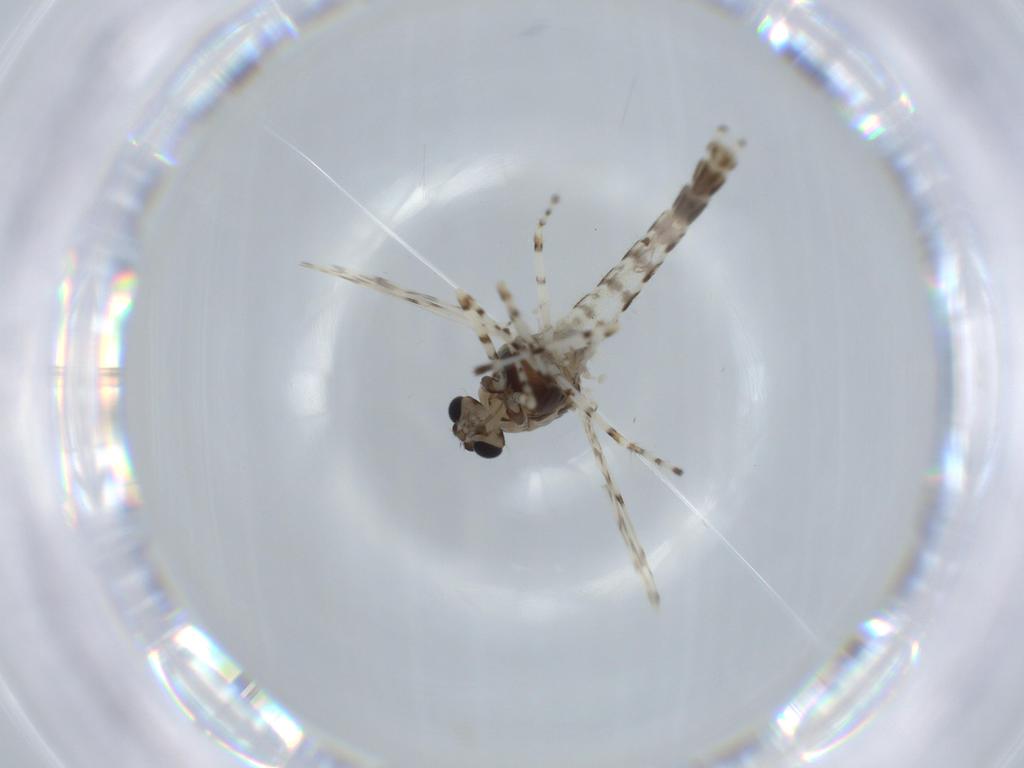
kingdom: Animalia
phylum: Arthropoda
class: Insecta
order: Diptera
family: Chironomidae
